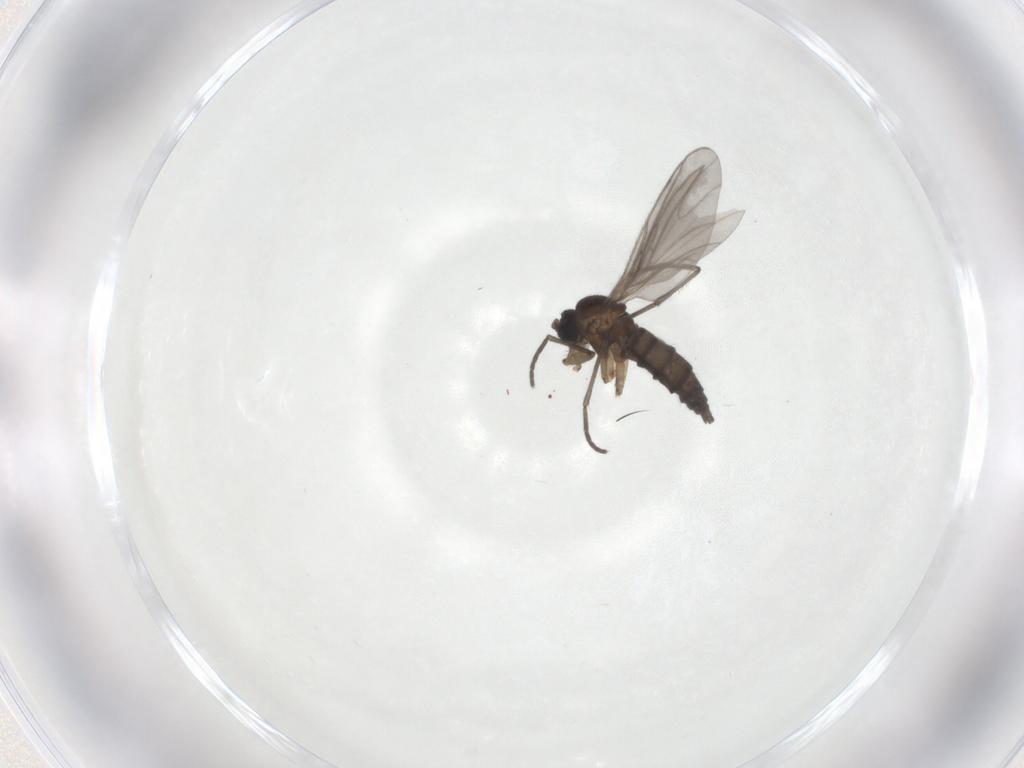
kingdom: Animalia
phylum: Arthropoda
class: Insecta
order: Diptera
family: Sciaridae
